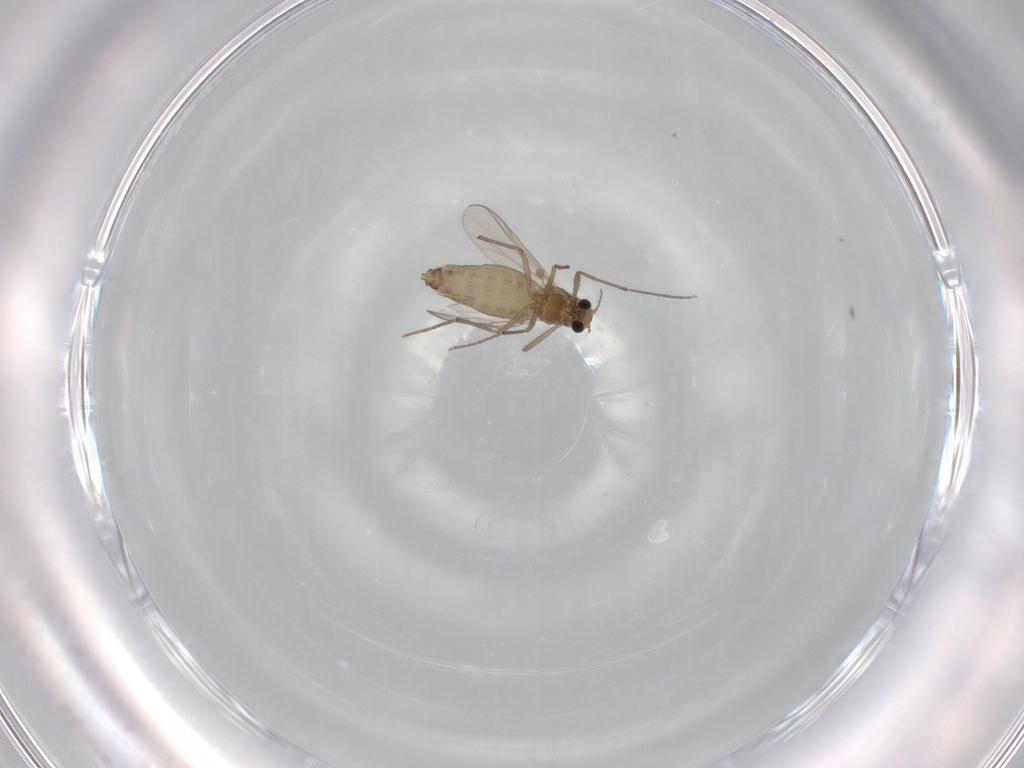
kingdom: Animalia
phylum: Arthropoda
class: Insecta
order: Diptera
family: Chironomidae
